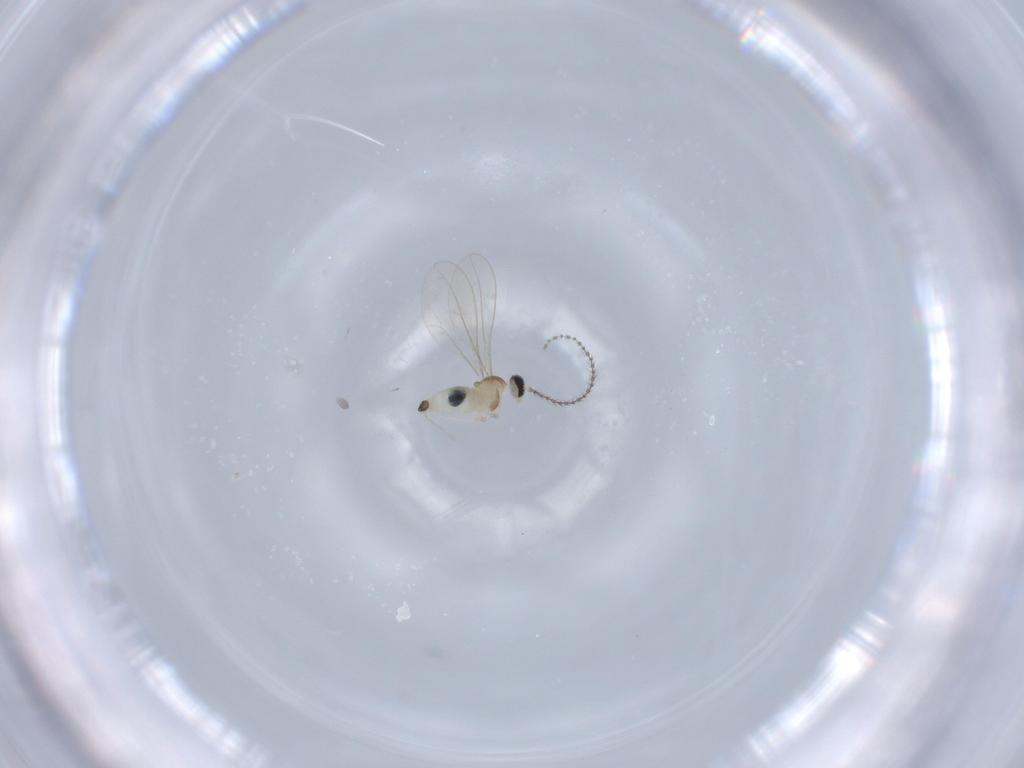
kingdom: Animalia
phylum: Arthropoda
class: Insecta
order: Diptera
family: Cecidomyiidae
